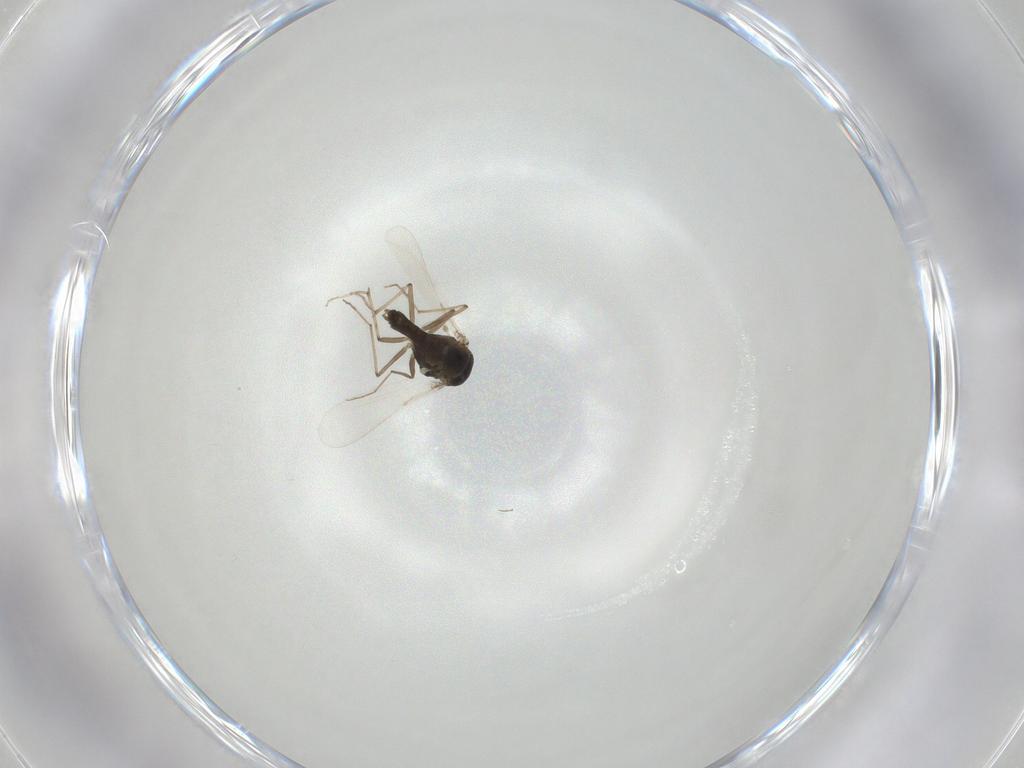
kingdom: Animalia
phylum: Arthropoda
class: Insecta
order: Diptera
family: Chironomidae
